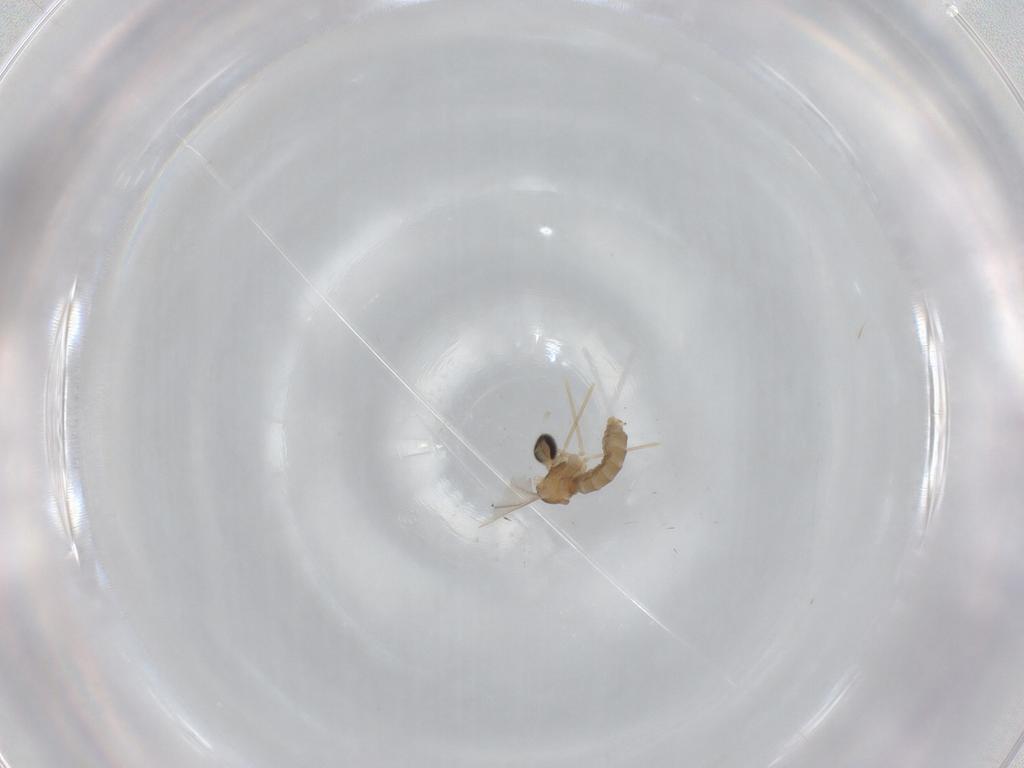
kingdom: Animalia
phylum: Arthropoda
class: Insecta
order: Diptera
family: Cecidomyiidae
